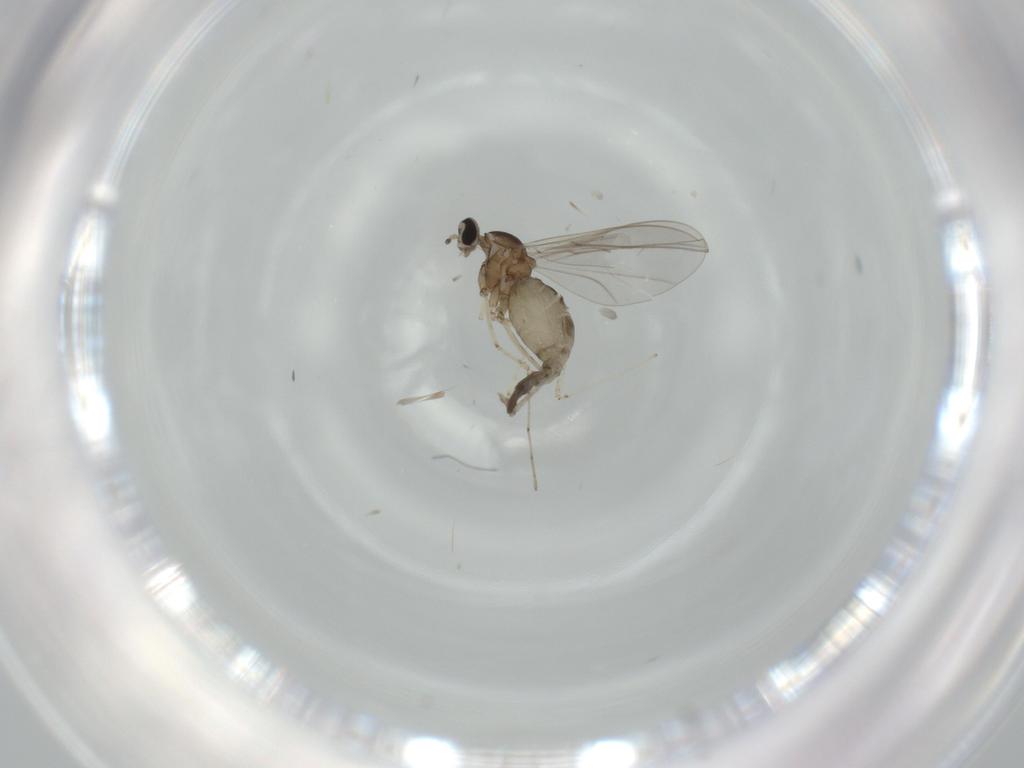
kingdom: Animalia
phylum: Arthropoda
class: Insecta
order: Diptera
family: Cecidomyiidae
